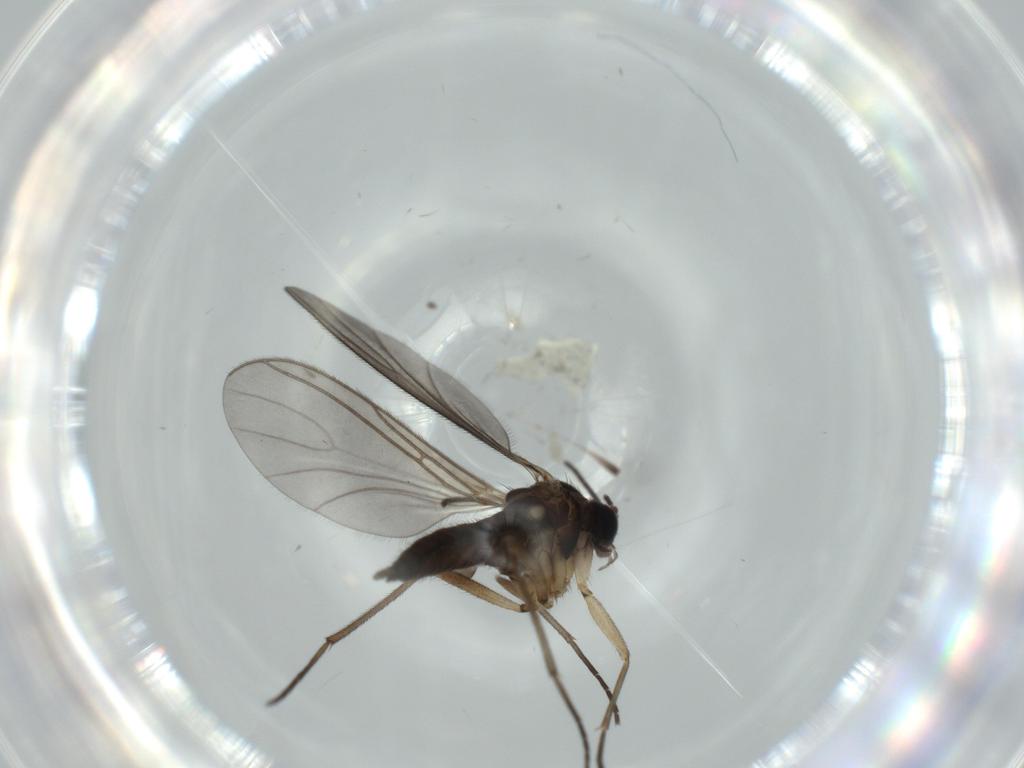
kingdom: Animalia
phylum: Arthropoda
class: Insecta
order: Diptera
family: Sciaridae
